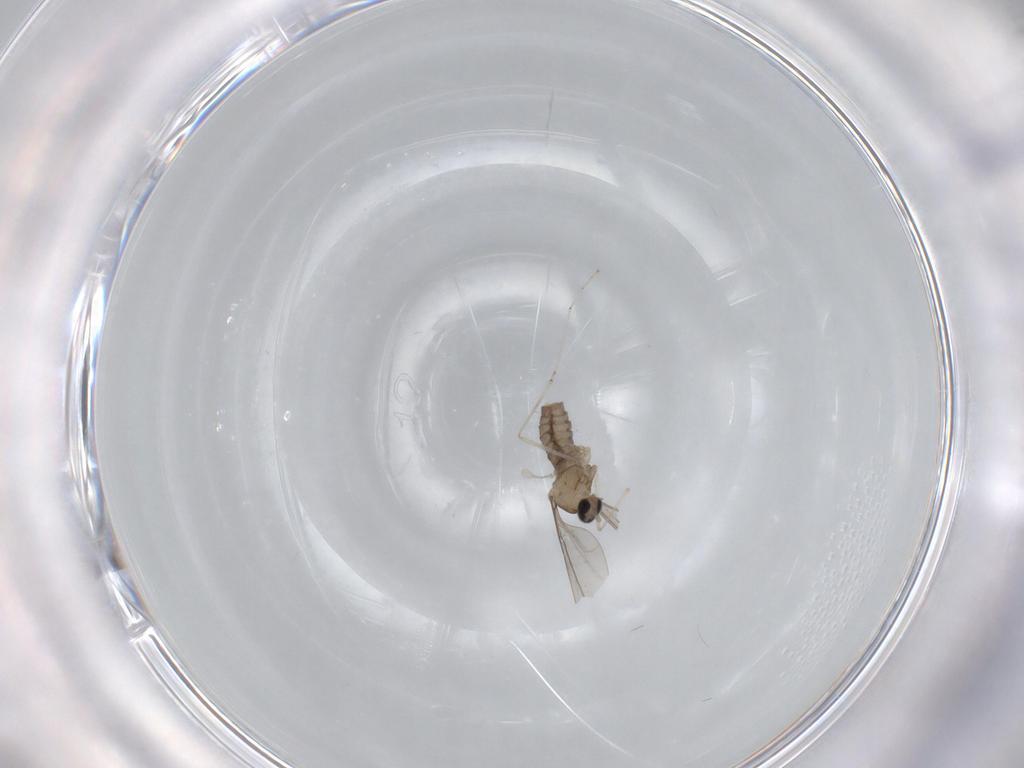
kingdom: Animalia
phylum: Arthropoda
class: Insecta
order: Diptera
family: Cecidomyiidae
